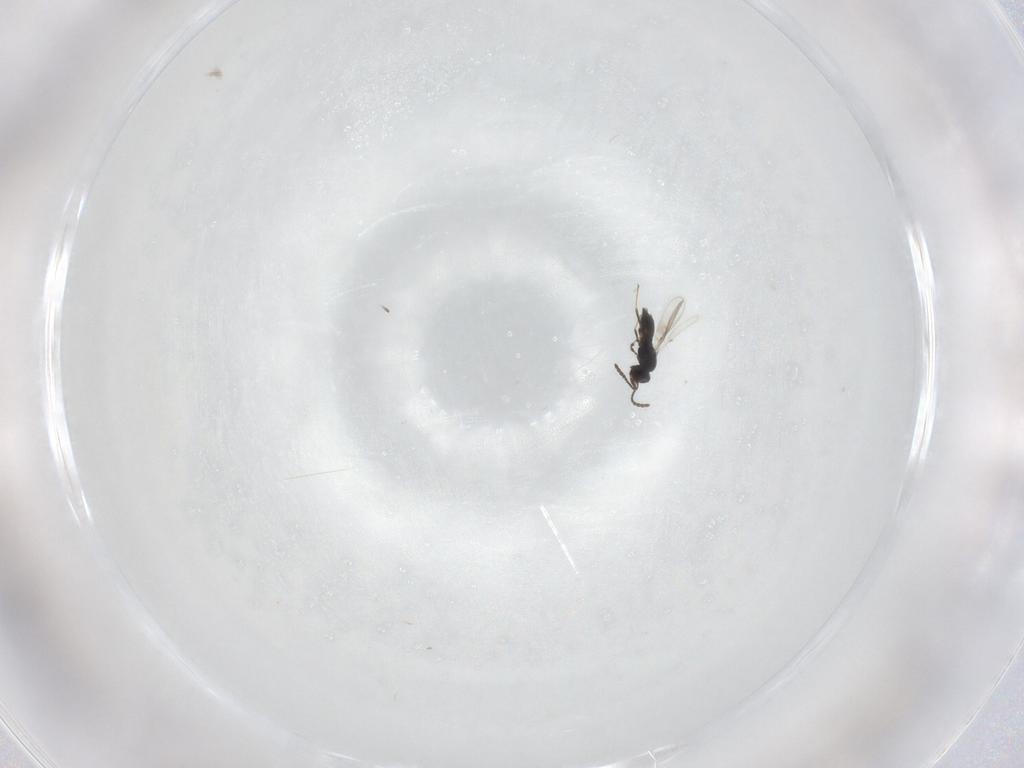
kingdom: Animalia
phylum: Arthropoda
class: Insecta
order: Hymenoptera
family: Scelionidae
